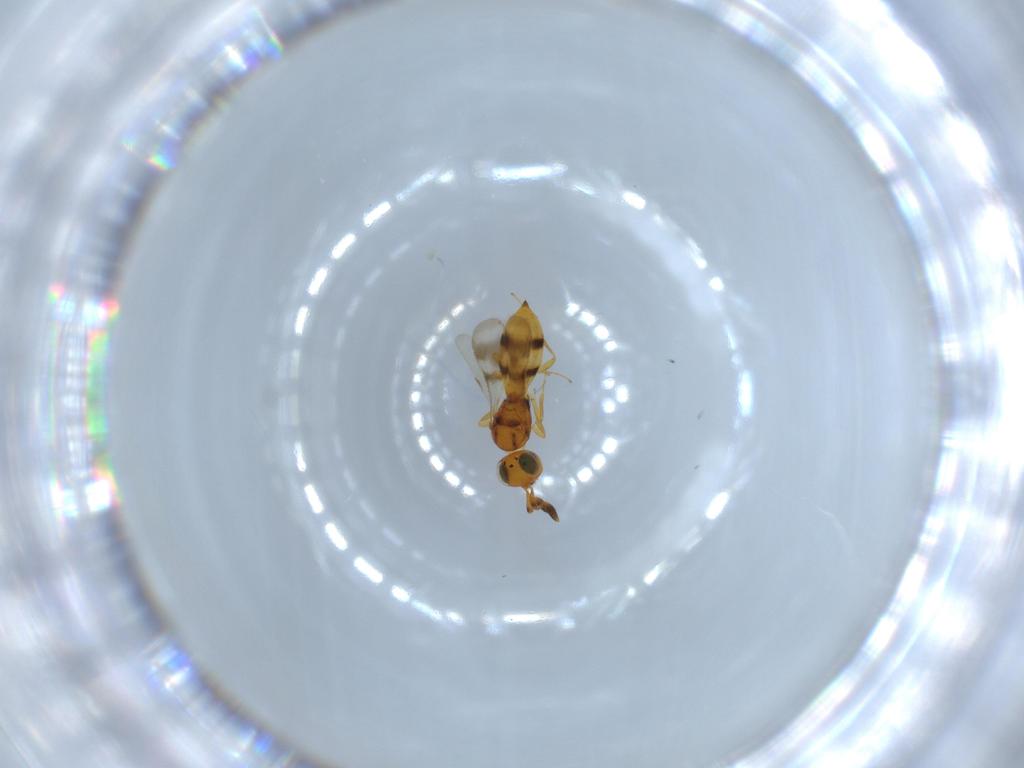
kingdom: Animalia
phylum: Arthropoda
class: Insecta
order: Hymenoptera
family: Scelionidae
